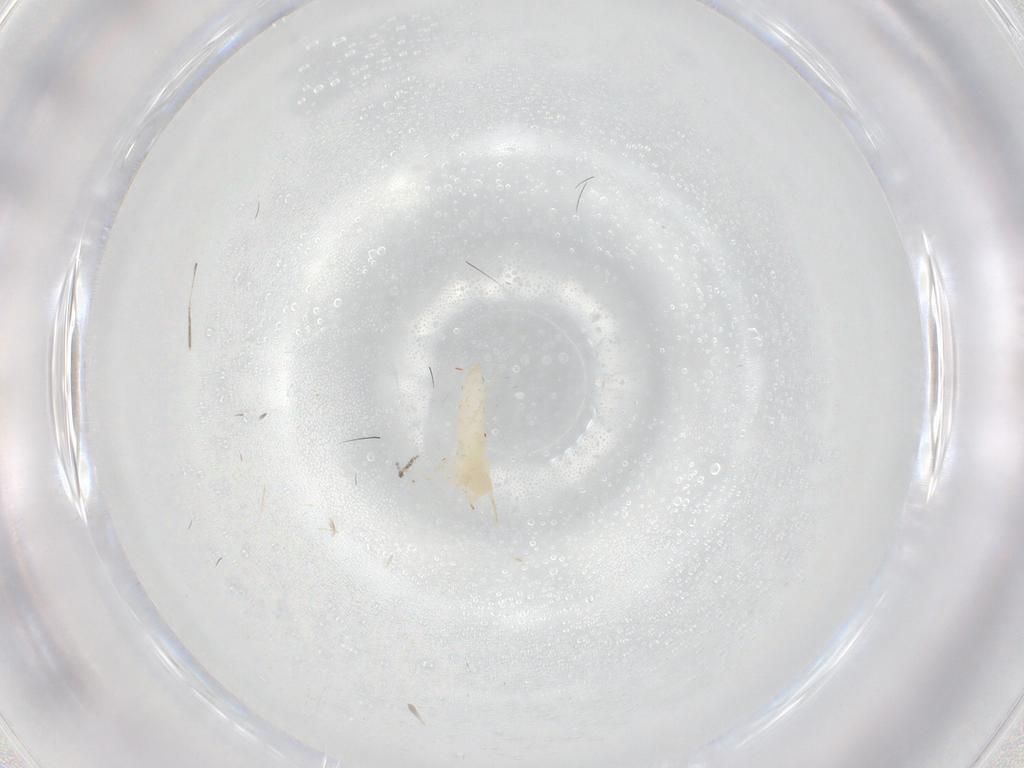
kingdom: Animalia
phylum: Arthropoda
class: Insecta
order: Diptera
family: Cecidomyiidae
